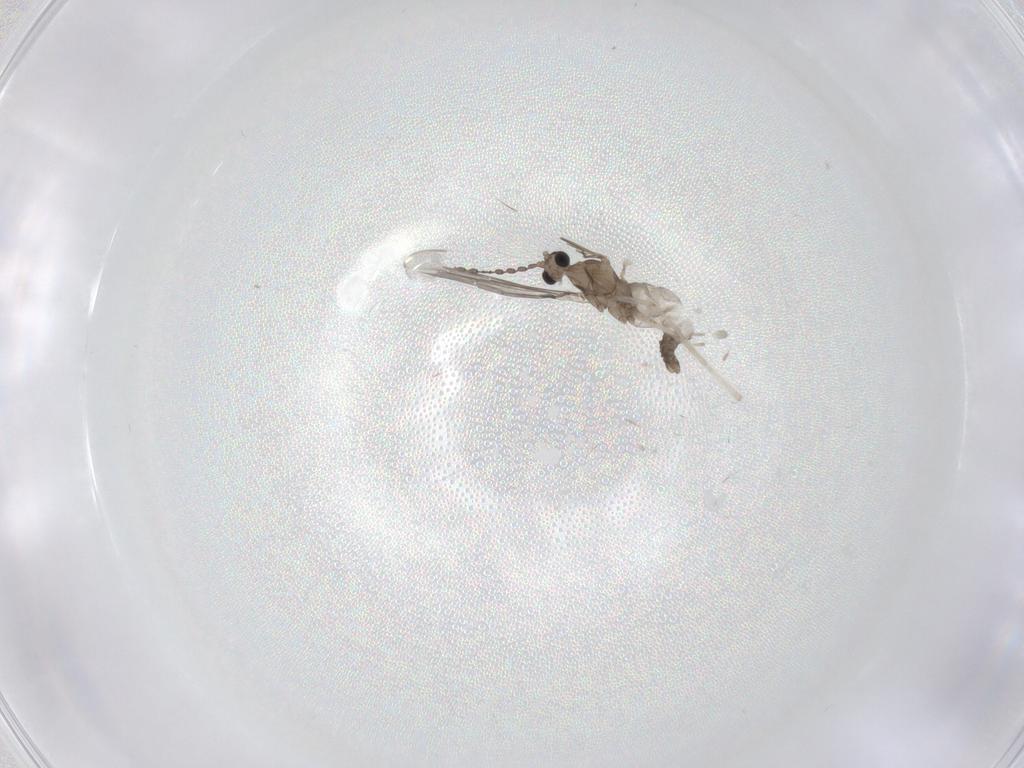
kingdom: Animalia
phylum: Arthropoda
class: Insecta
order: Diptera
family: Cecidomyiidae
